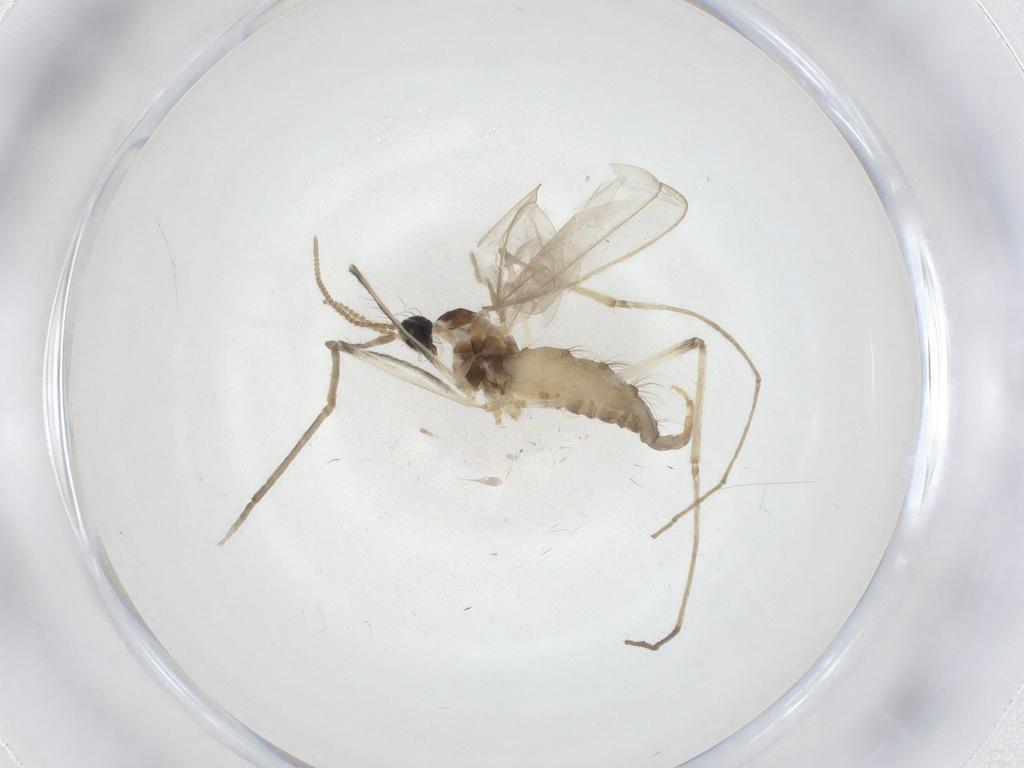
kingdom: Animalia
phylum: Arthropoda
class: Insecta
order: Diptera
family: Cecidomyiidae
